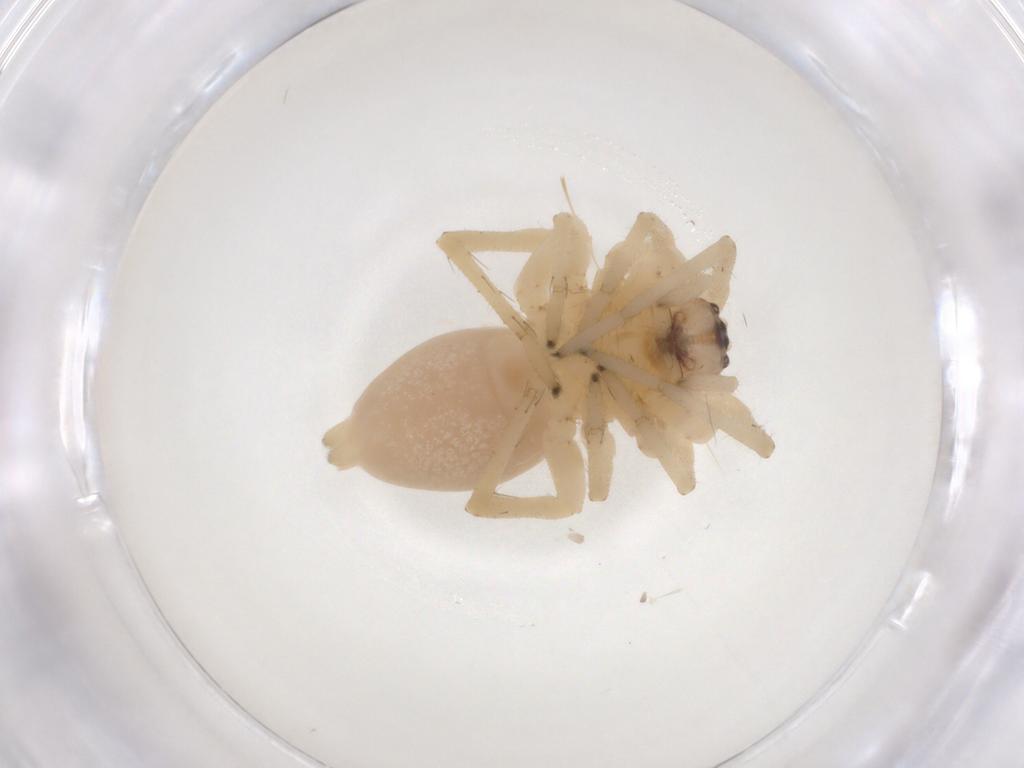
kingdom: Animalia
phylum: Arthropoda
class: Arachnida
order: Araneae
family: Cheiracanthiidae
